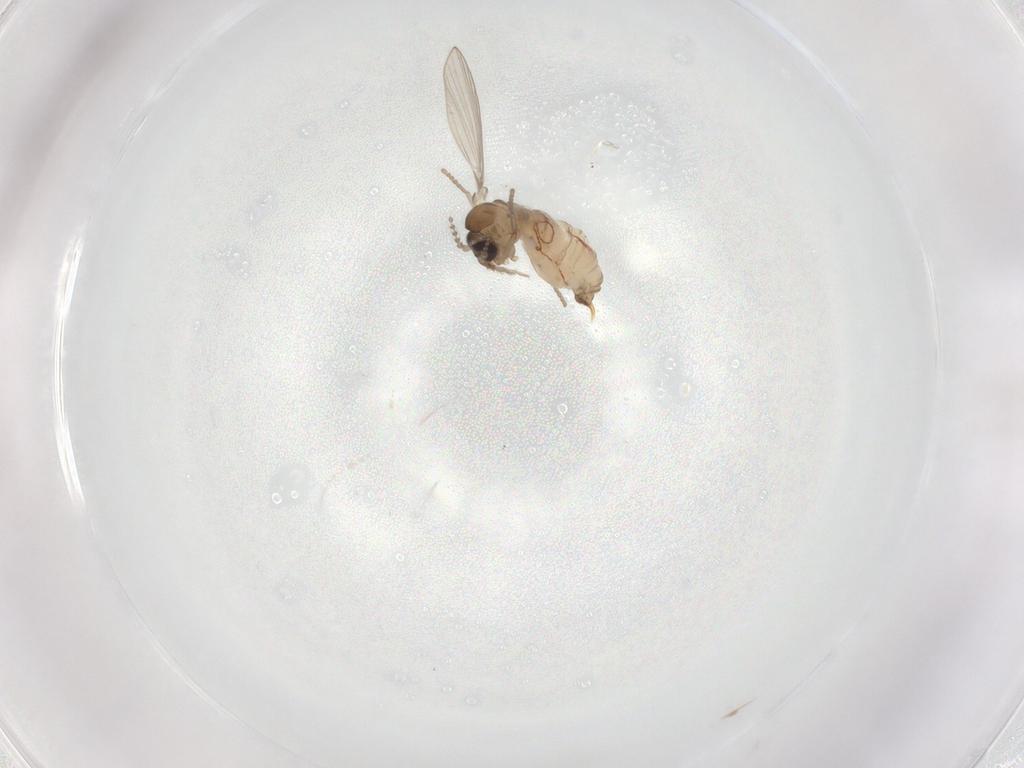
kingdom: Animalia
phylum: Arthropoda
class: Insecta
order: Diptera
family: Psychodidae
